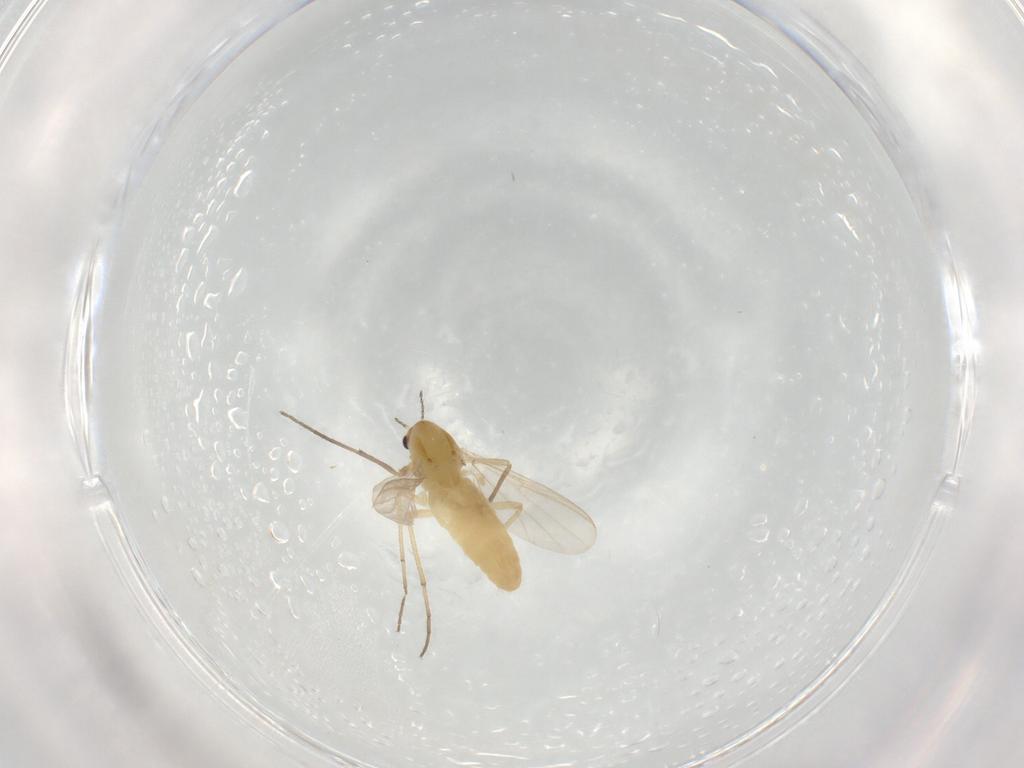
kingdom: Animalia
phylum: Arthropoda
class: Insecta
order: Diptera
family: Chironomidae
